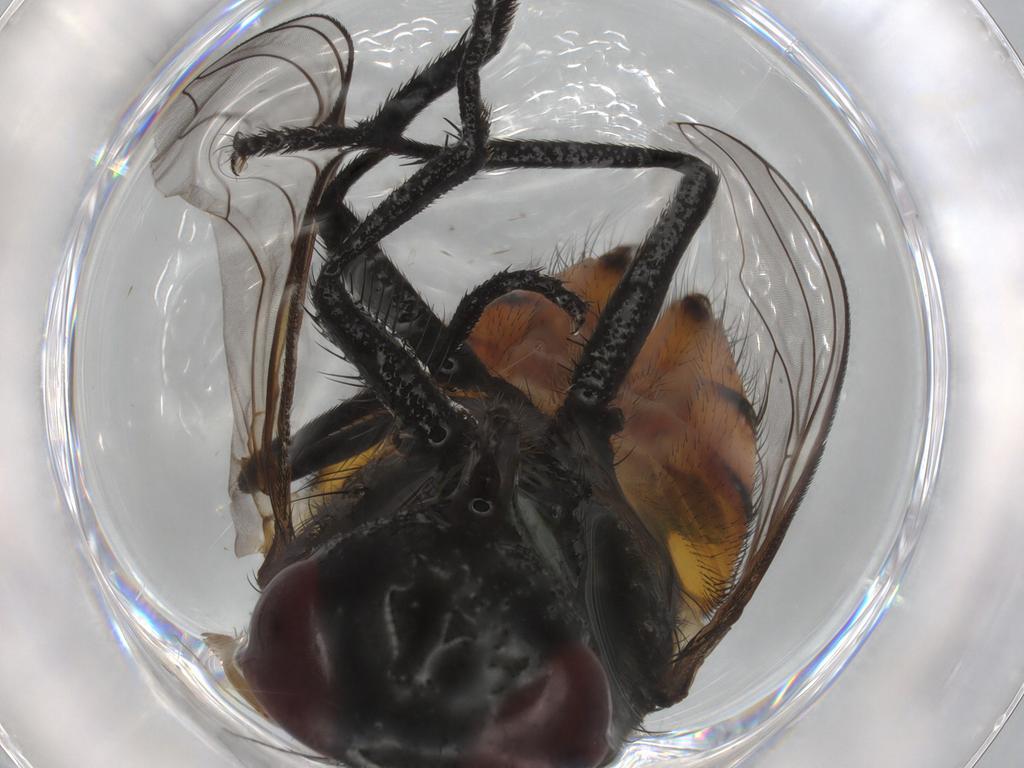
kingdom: Animalia
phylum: Arthropoda
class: Insecta
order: Diptera
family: Phoridae
